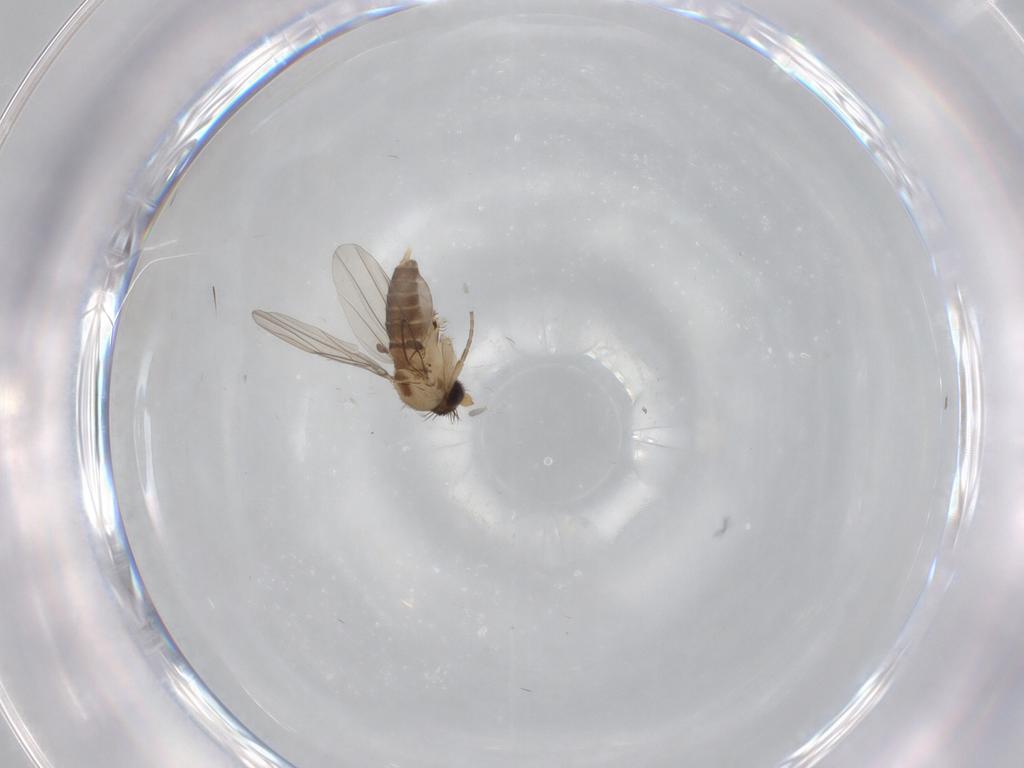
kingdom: Animalia
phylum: Arthropoda
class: Insecta
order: Diptera
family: Phoridae
